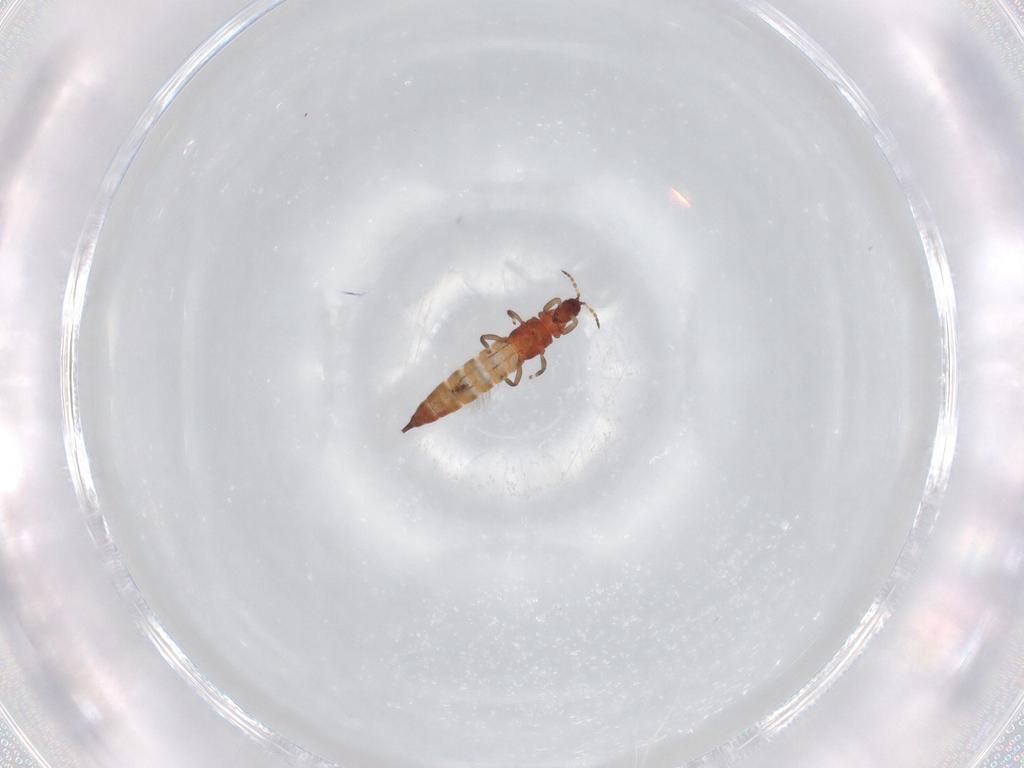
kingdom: Animalia
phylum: Arthropoda
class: Insecta
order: Thysanoptera
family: Phlaeothripidae
